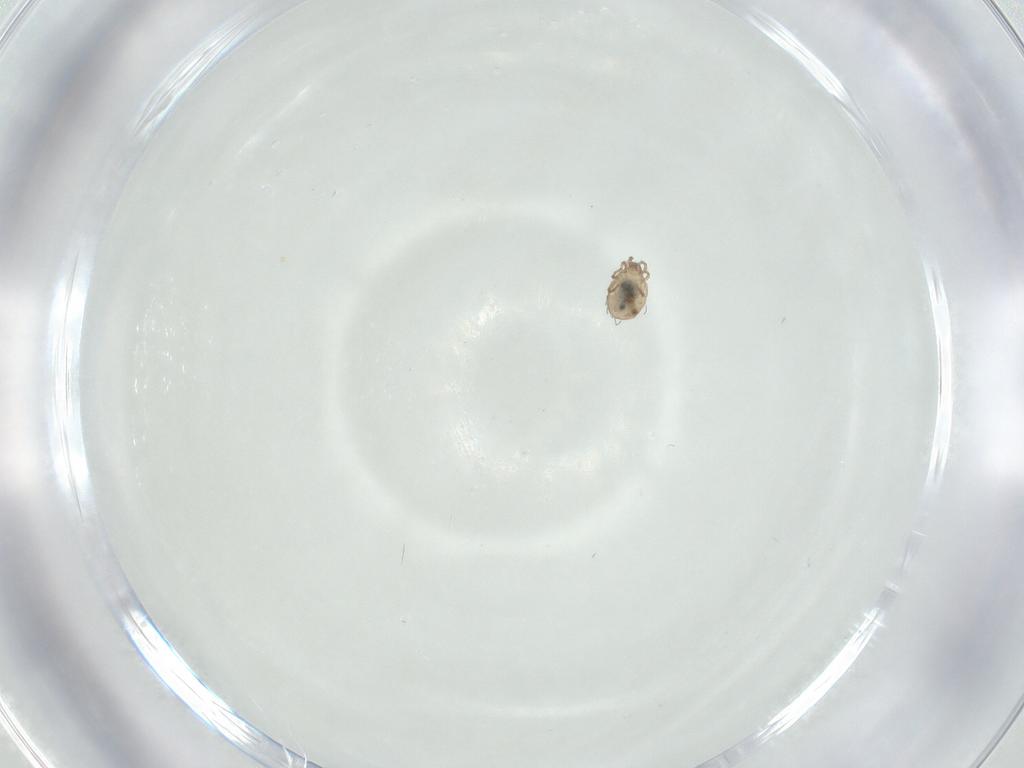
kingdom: Animalia
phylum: Arthropoda
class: Arachnida
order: Sarcoptiformes
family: Oribatulidae
